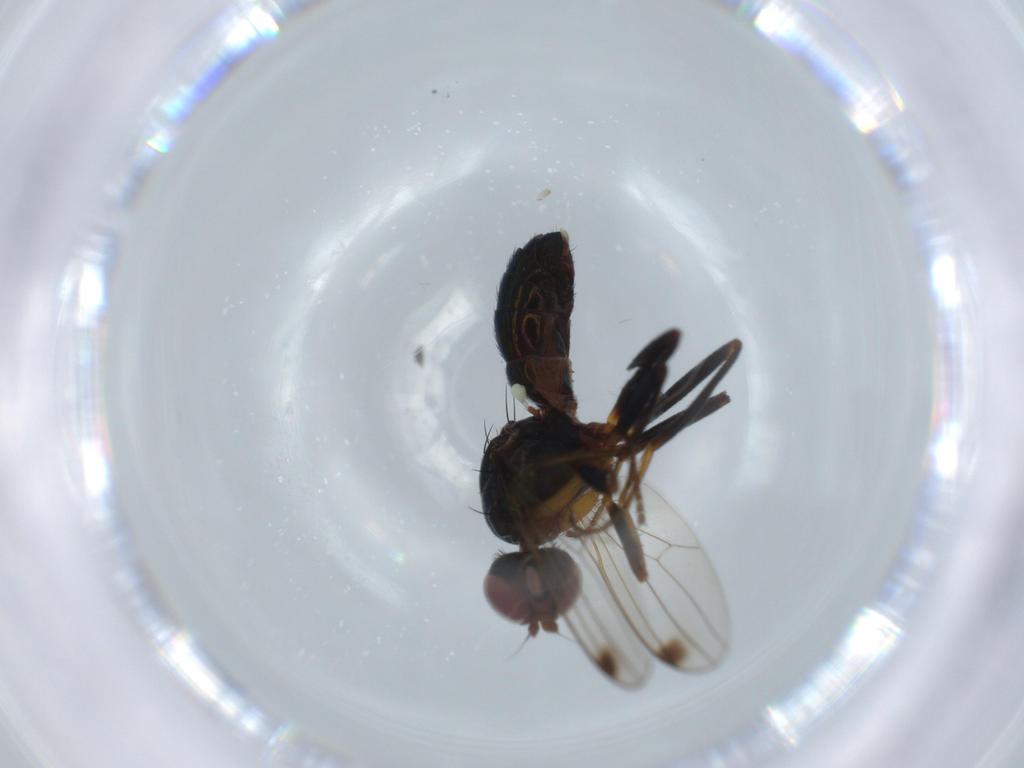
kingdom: Animalia
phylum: Arthropoda
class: Insecta
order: Diptera
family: Sepsidae
